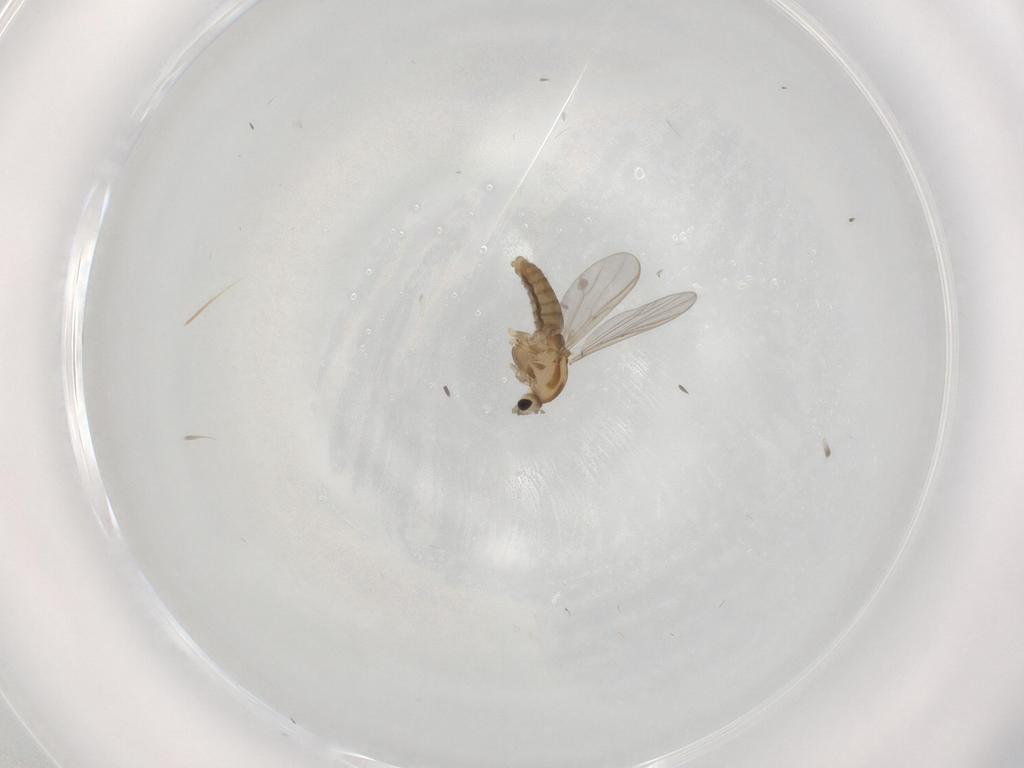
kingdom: Animalia
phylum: Arthropoda
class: Insecta
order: Diptera
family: Chironomidae
